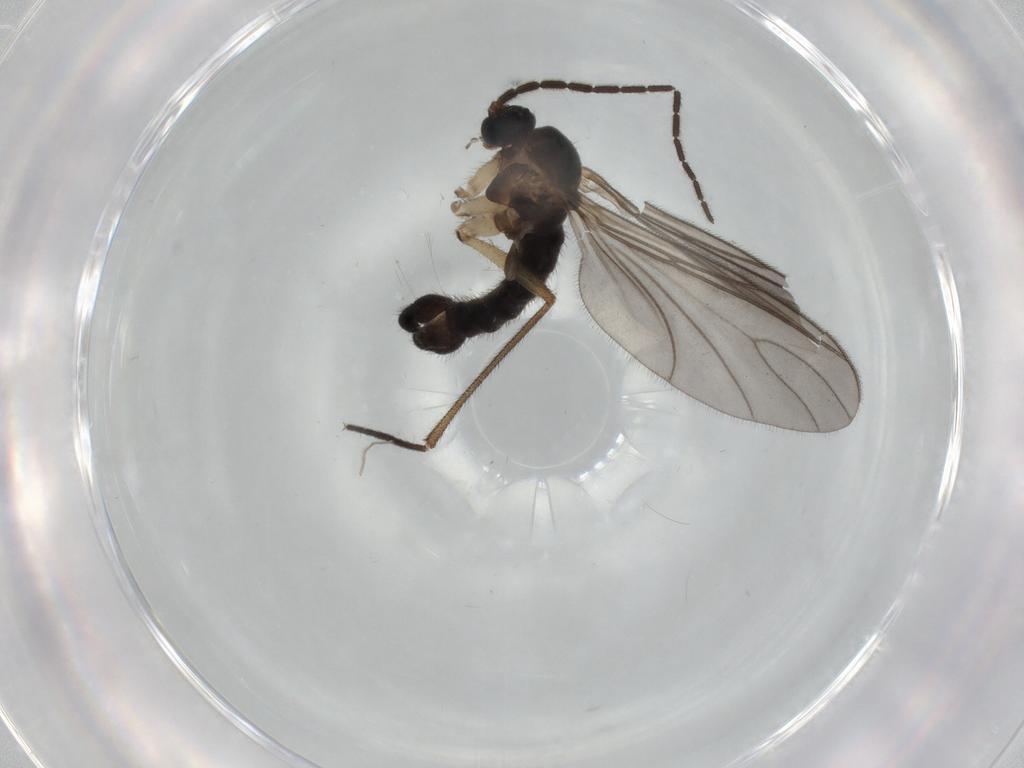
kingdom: Animalia
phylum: Arthropoda
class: Insecta
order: Diptera
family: Sciaridae
